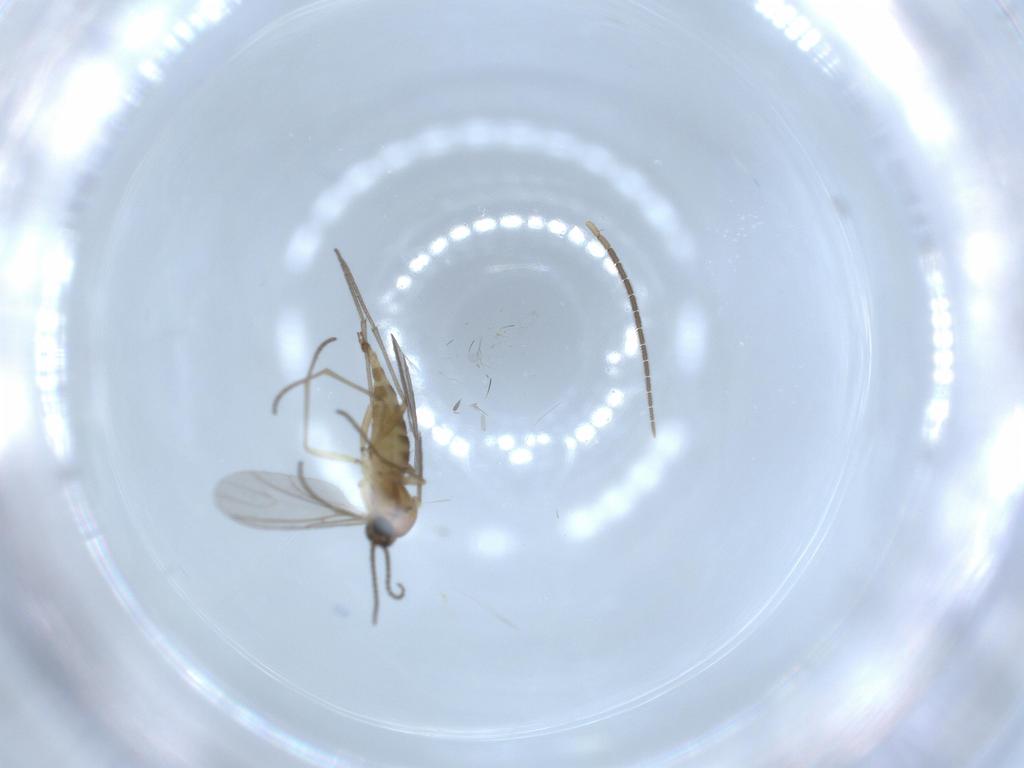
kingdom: Animalia
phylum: Arthropoda
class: Insecta
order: Diptera
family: Sciaridae
